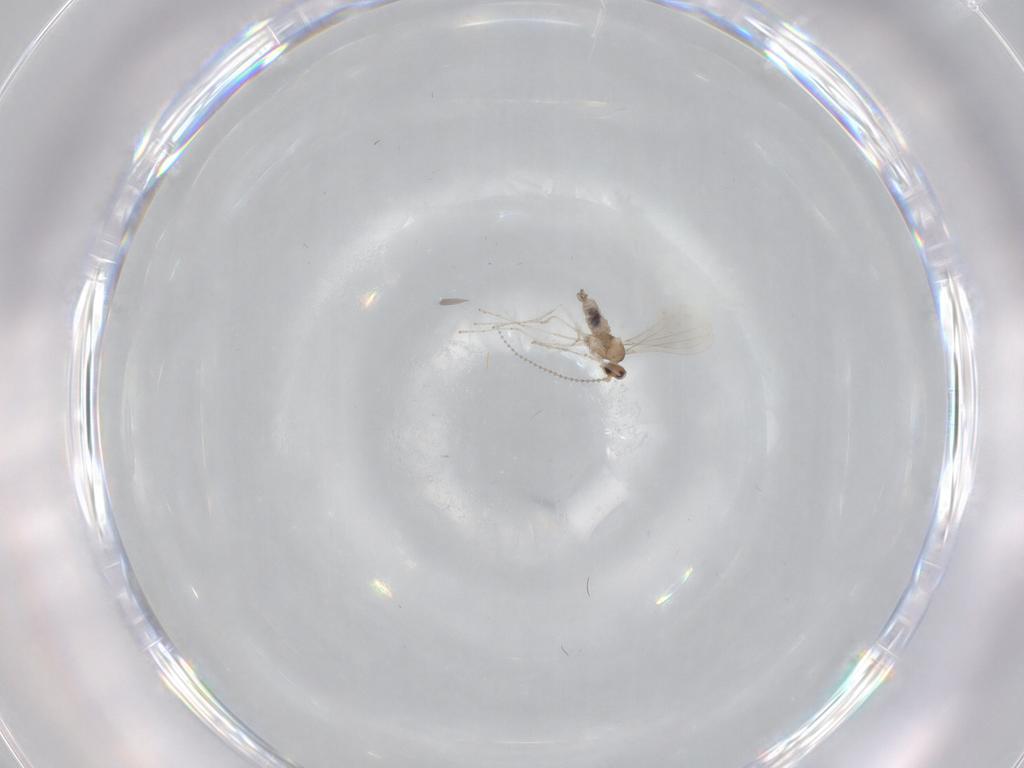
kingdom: Animalia
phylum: Arthropoda
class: Insecta
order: Diptera
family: Cecidomyiidae
